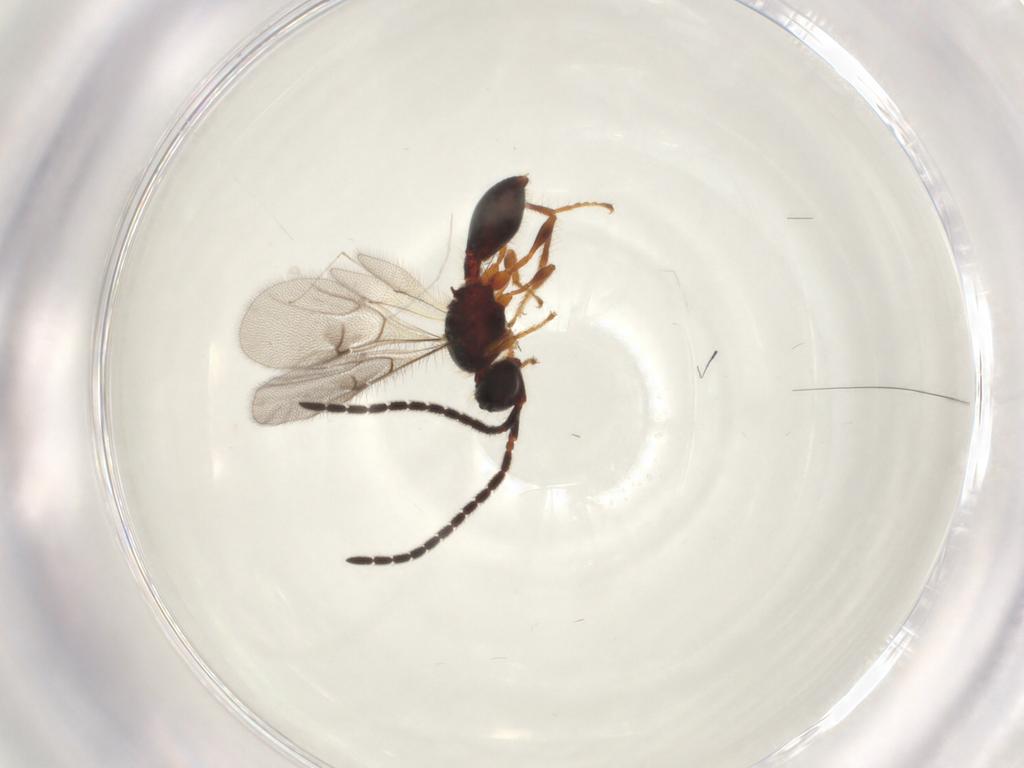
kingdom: Animalia
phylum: Arthropoda
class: Insecta
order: Hymenoptera
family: Diapriidae
